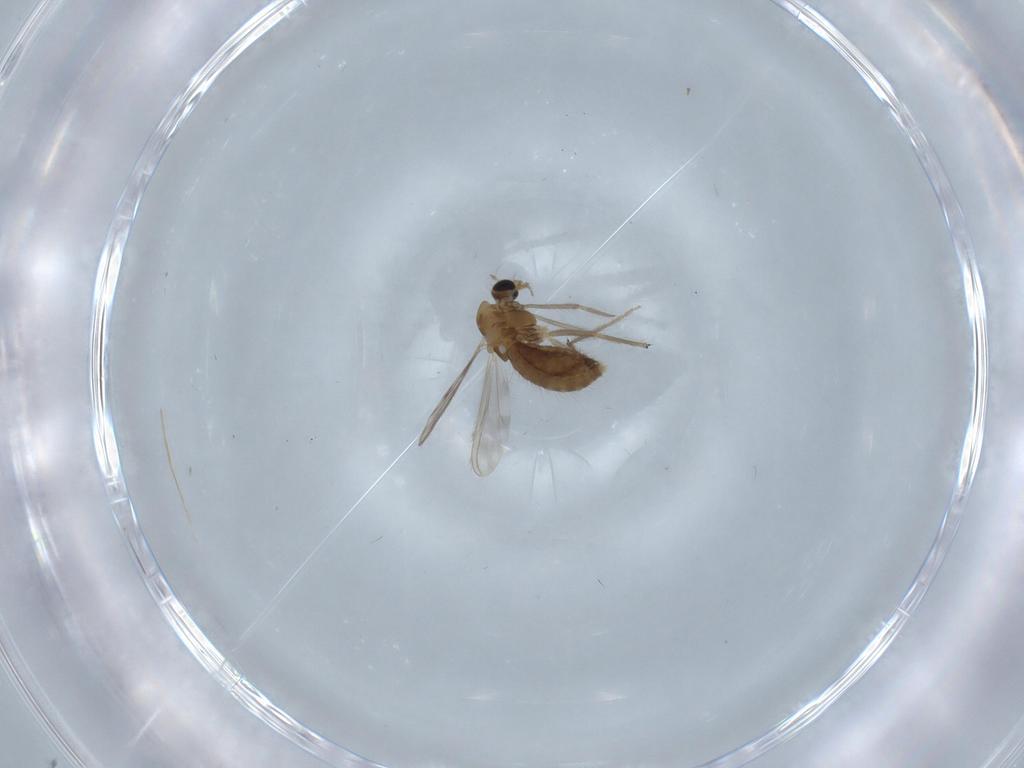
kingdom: Animalia
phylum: Arthropoda
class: Insecta
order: Diptera
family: Chironomidae
